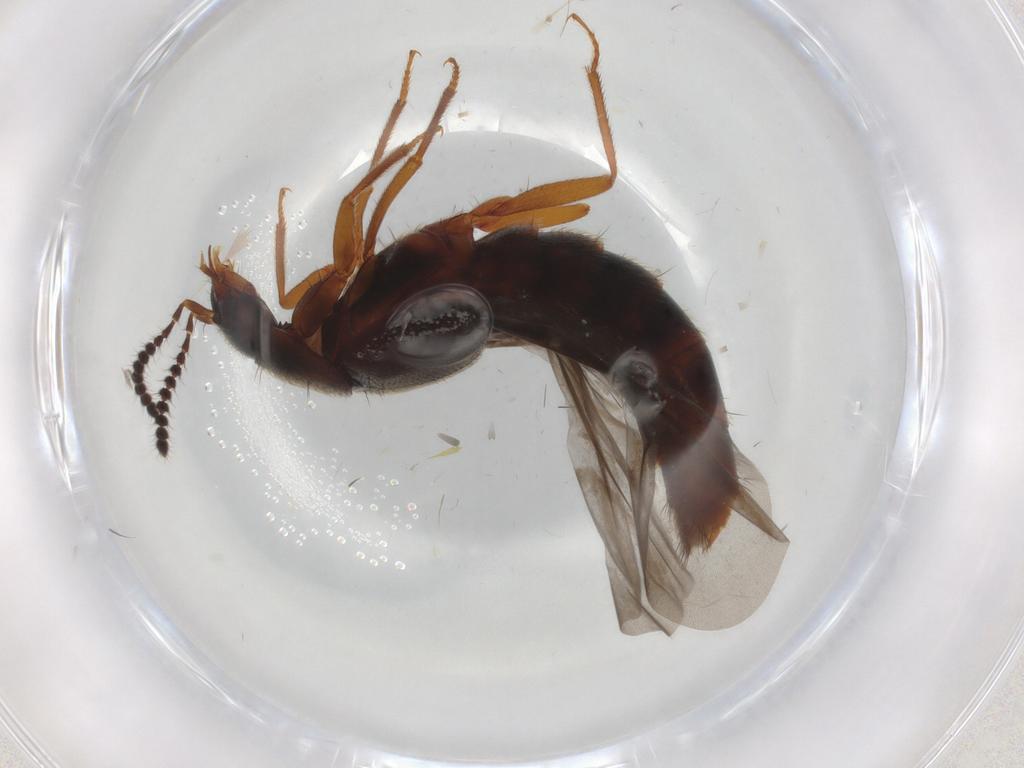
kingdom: Animalia
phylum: Arthropoda
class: Insecta
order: Coleoptera
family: Staphylinidae
